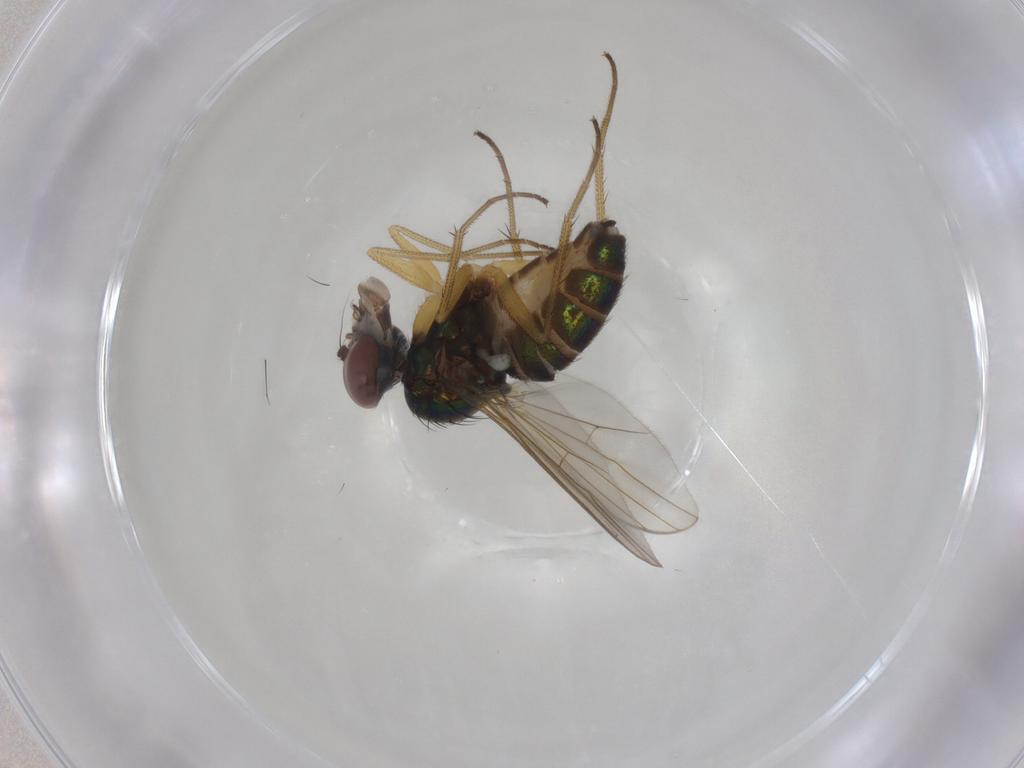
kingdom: Animalia
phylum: Arthropoda
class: Insecta
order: Diptera
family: Dolichopodidae
